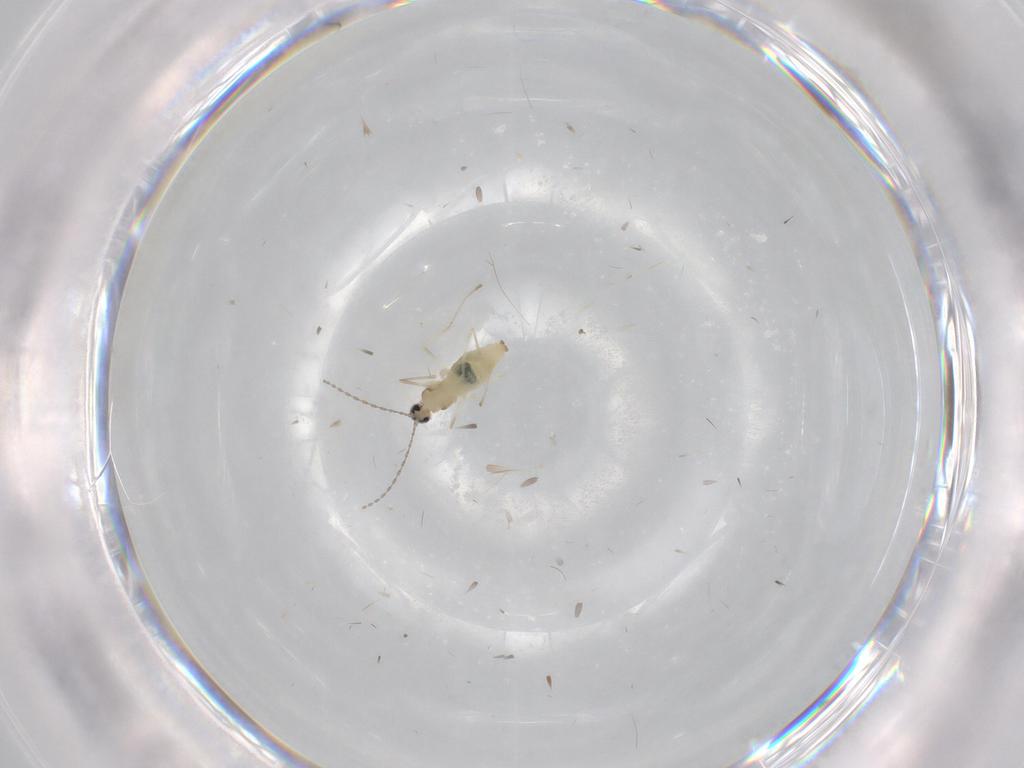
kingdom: Animalia
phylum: Arthropoda
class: Insecta
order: Diptera
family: Cecidomyiidae
